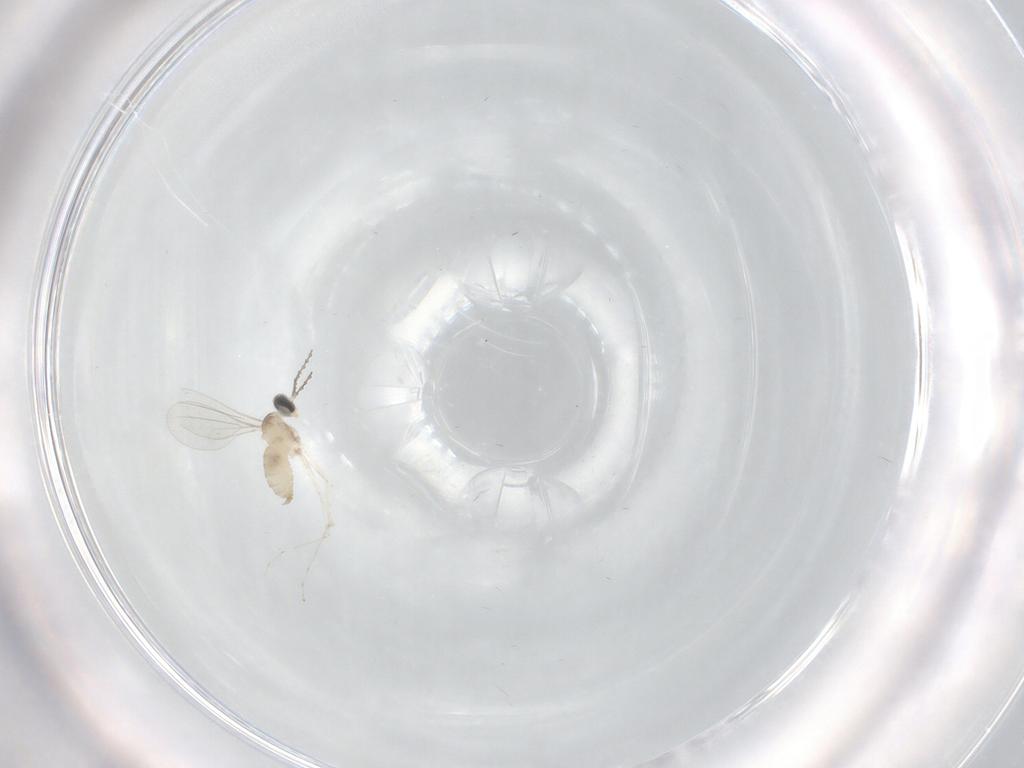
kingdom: Animalia
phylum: Arthropoda
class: Insecta
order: Diptera
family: Cecidomyiidae
